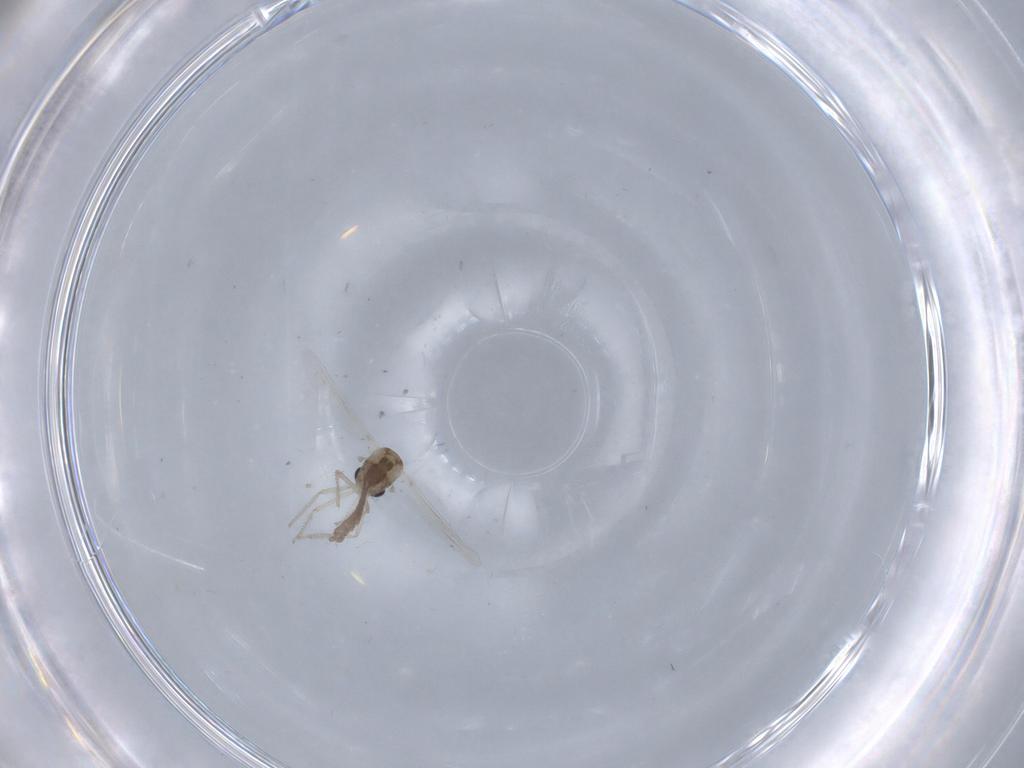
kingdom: Animalia
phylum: Arthropoda
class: Insecta
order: Diptera
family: Chironomidae
